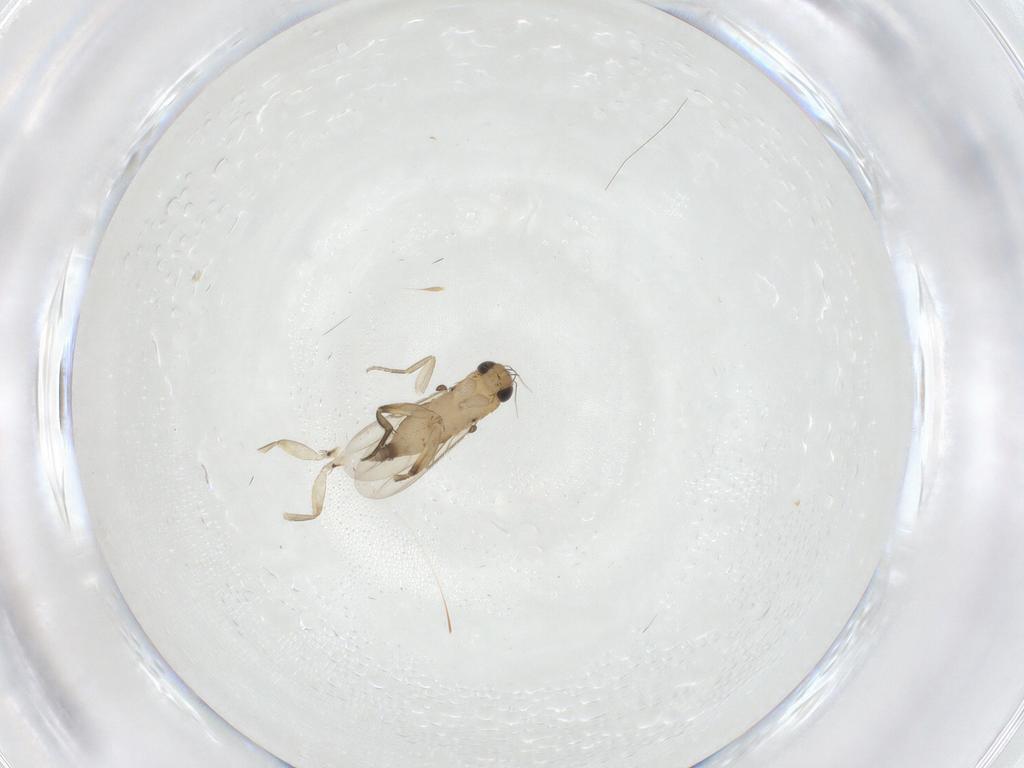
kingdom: Animalia
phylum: Arthropoda
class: Insecta
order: Diptera
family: Phoridae
